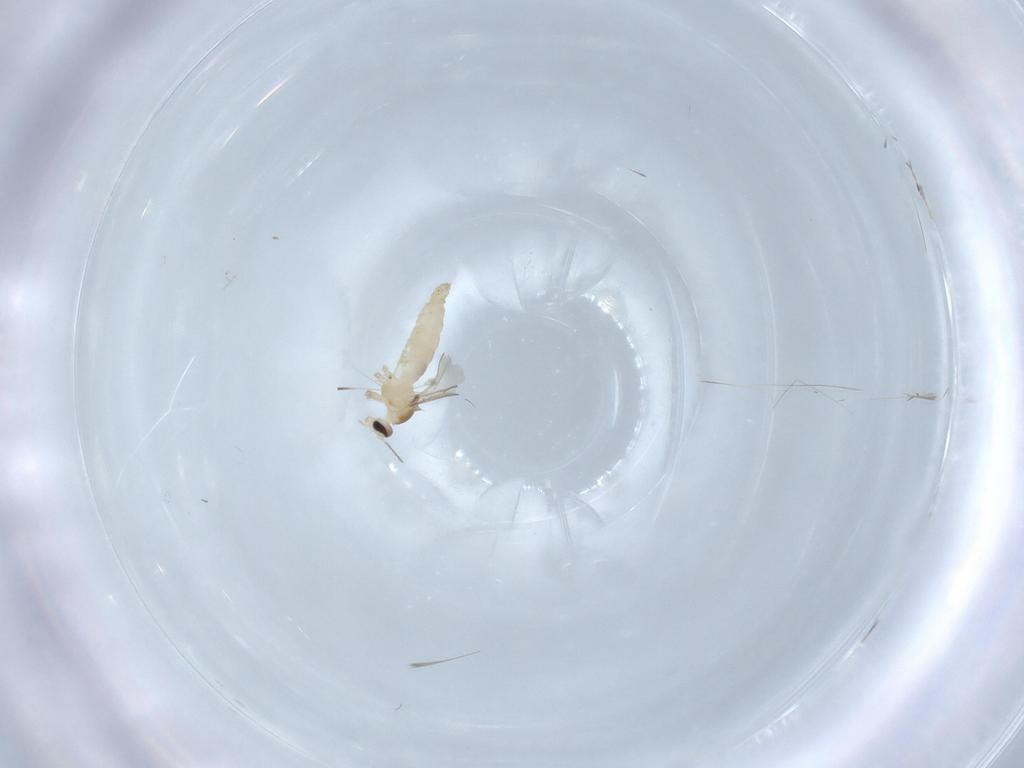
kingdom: Animalia
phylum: Arthropoda
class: Insecta
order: Diptera
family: Cecidomyiidae
